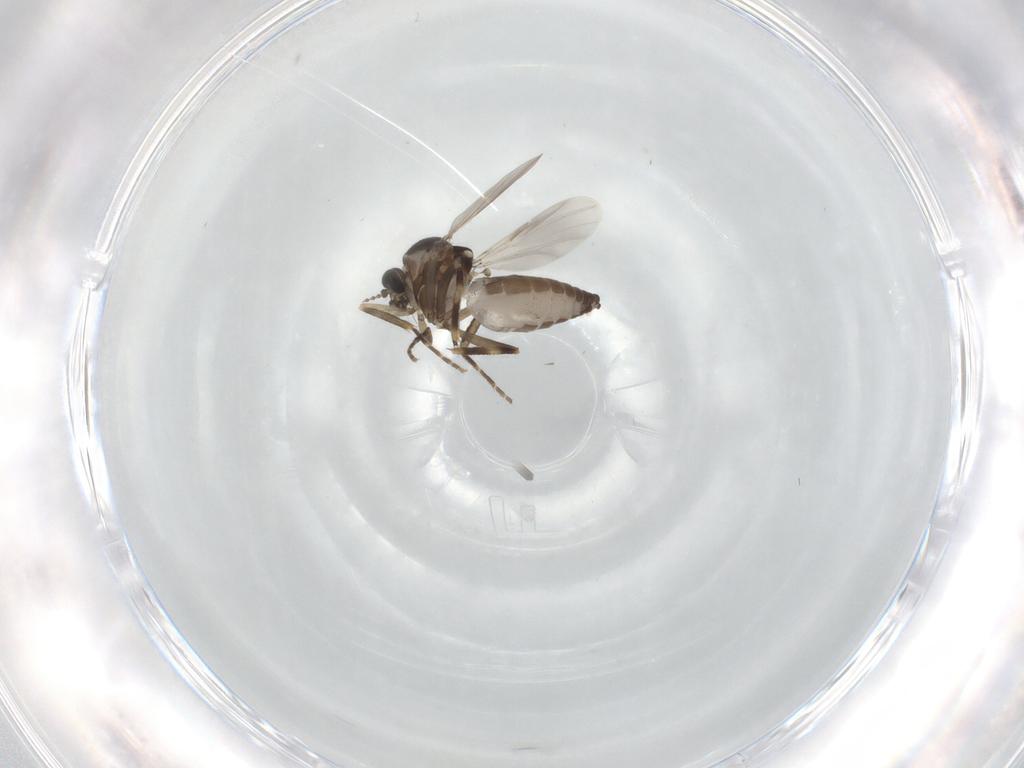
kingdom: Animalia
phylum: Arthropoda
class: Insecta
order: Diptera
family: Ceratopogonidae
